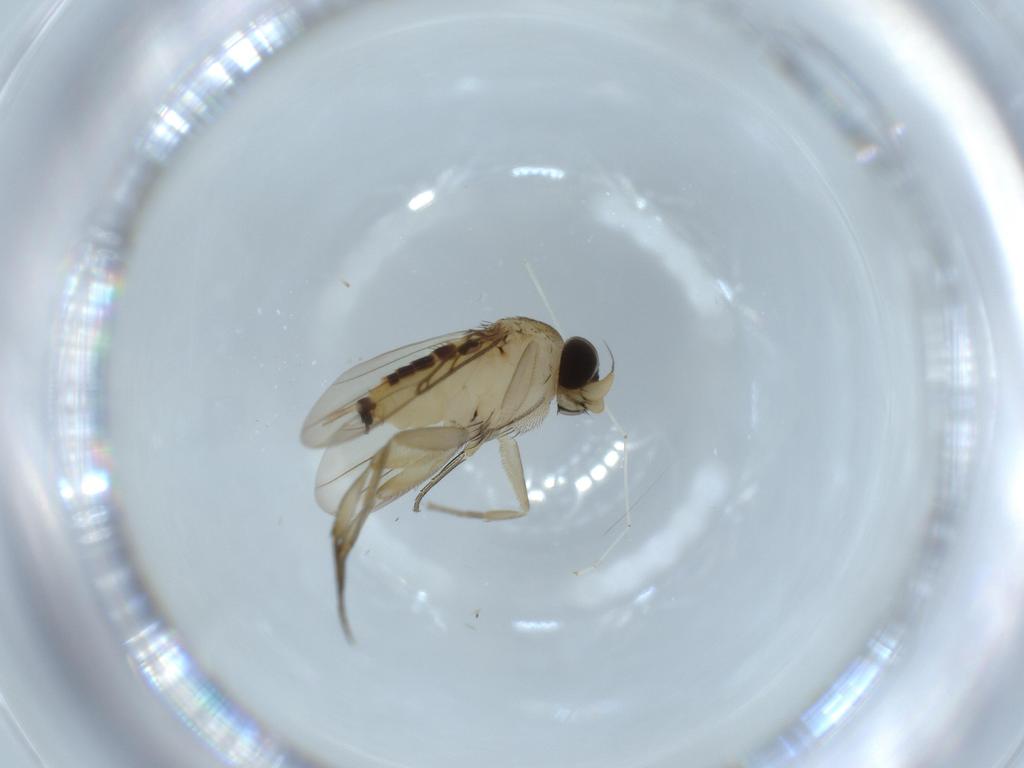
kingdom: Animalia
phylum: Arthropoda
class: Insecta
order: Diptera
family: Phoridae
